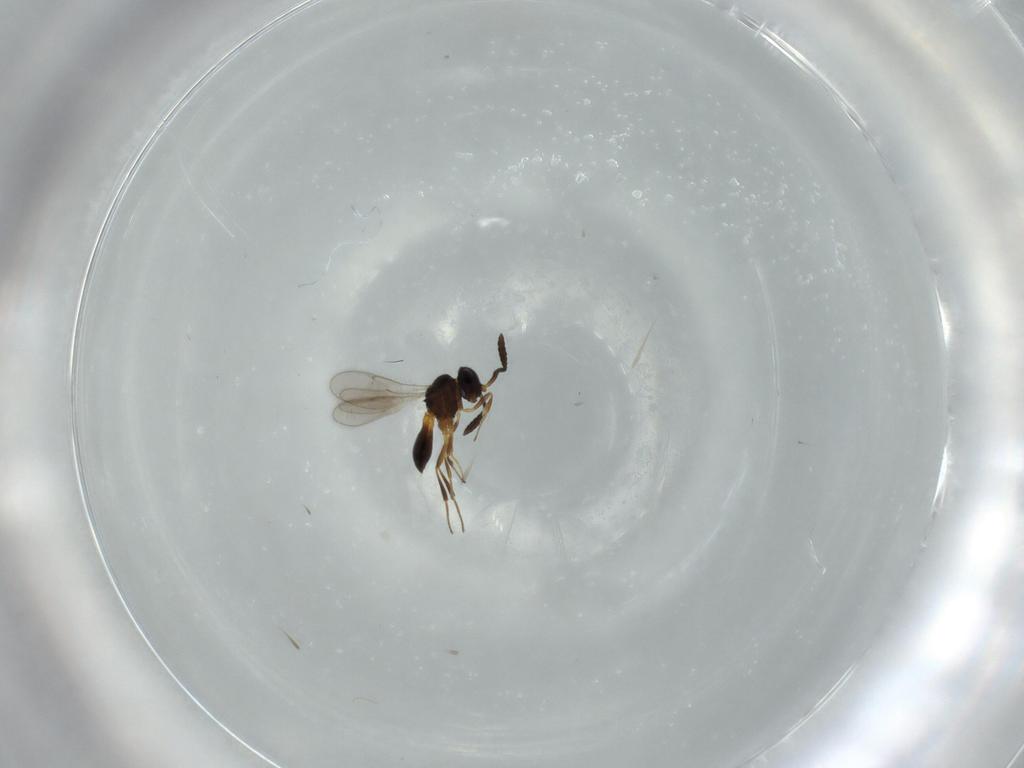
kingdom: Animalia
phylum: Arthropoda
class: Insecta
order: Hymenoptera
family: Scelionidae
